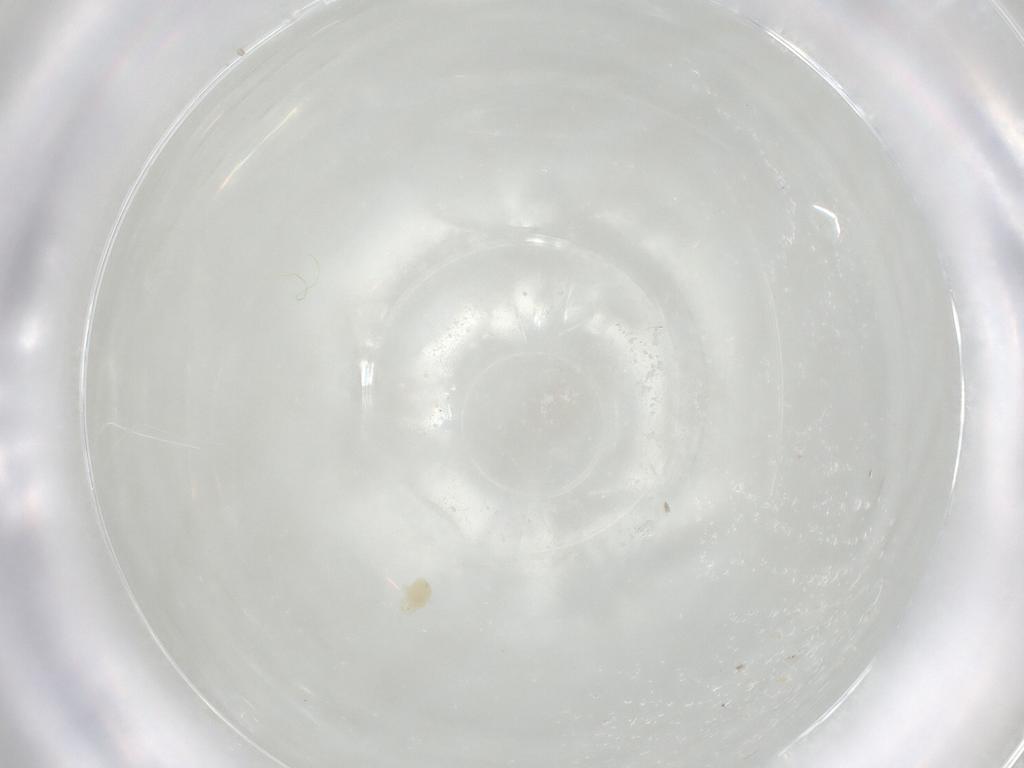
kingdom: Animalia
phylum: Arthropoda
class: Arachnida
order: Trombidiformes
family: Tetranychidae
